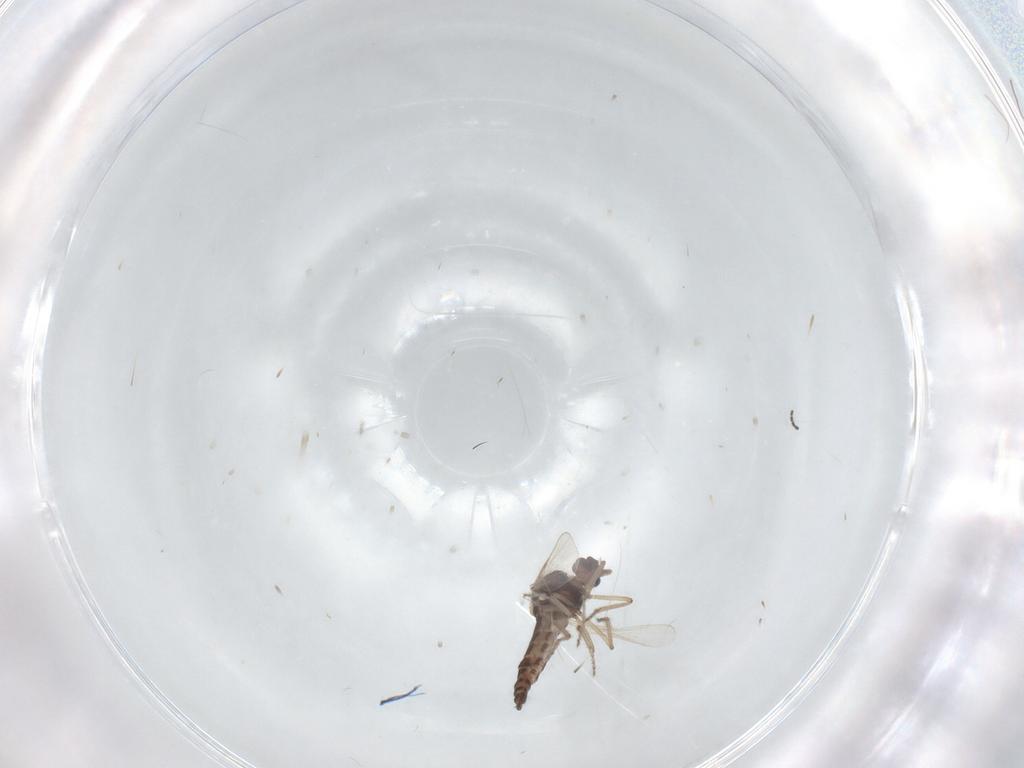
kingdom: Animalia
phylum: Arthropoda
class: Insecta
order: Diptera
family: Ceratopogonidae
